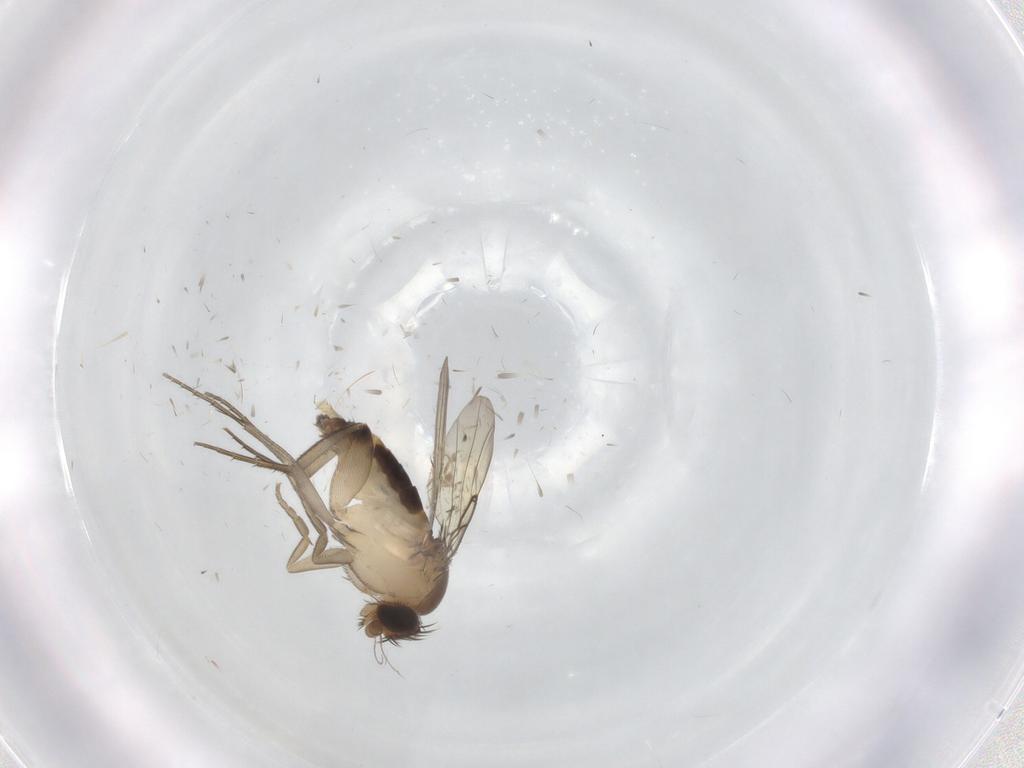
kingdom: Animalia
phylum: Arthropoda
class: Insecta
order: Diptera
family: Phoridae
